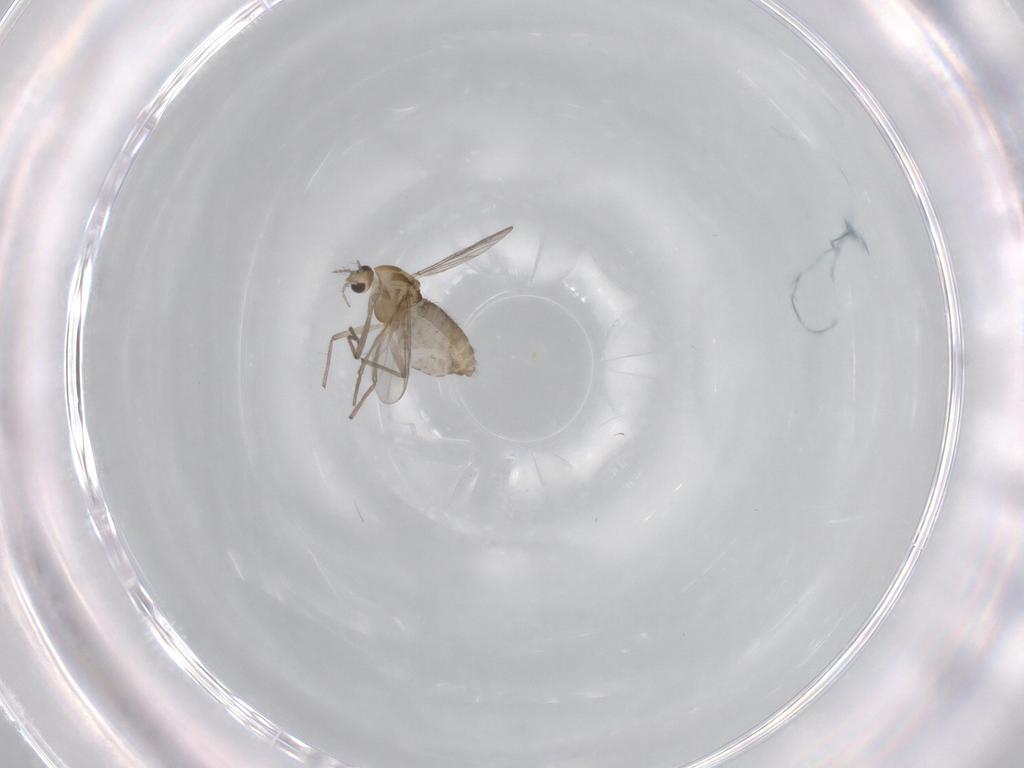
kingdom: Animalia
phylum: Arthropoda
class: Insecta
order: Diptera
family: Chironomidae
